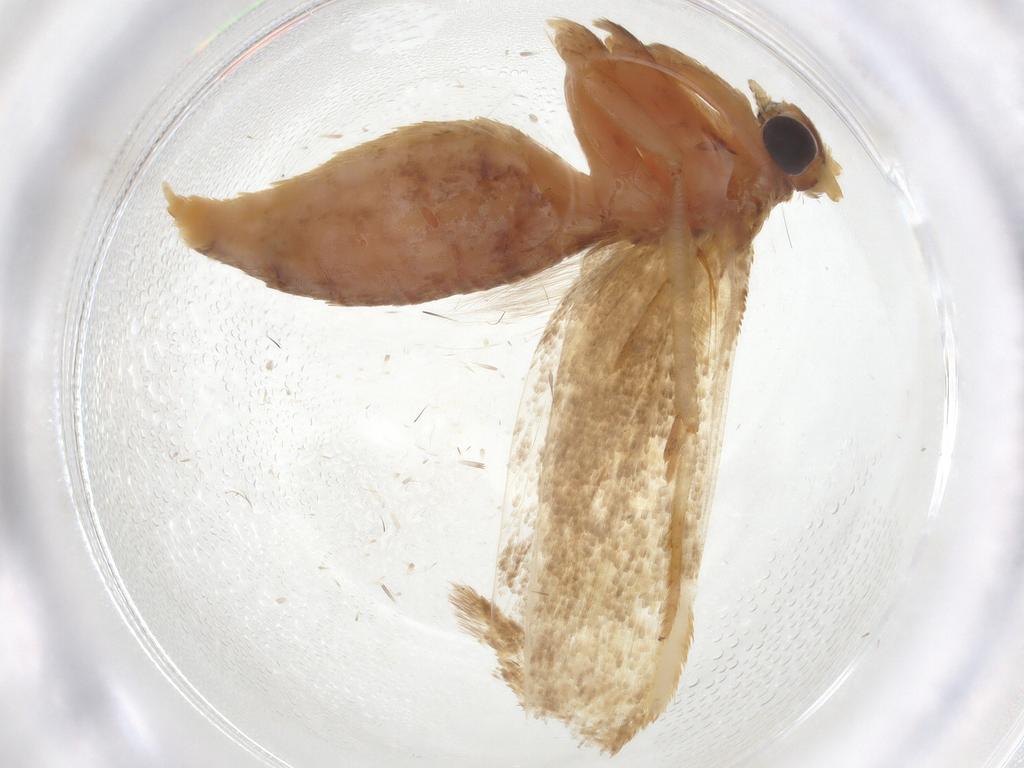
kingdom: Animalia
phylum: Arthropoda
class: Insecta
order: Lepidoptera
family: Blastobasidae
